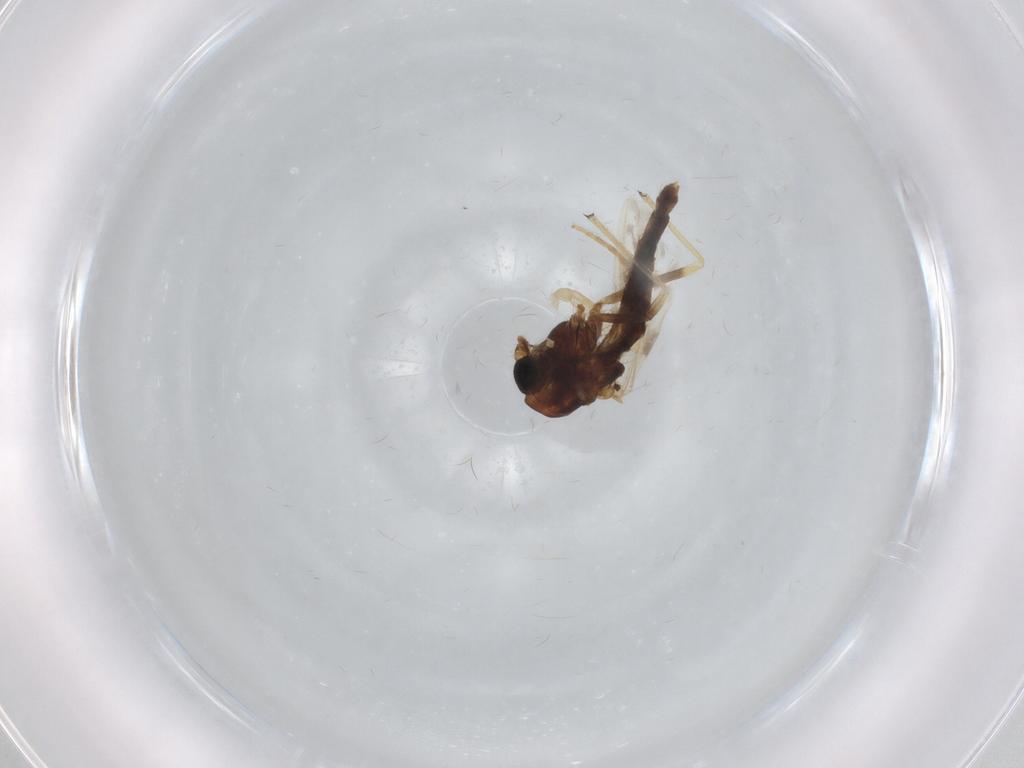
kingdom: Animalia
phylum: Arthropoda
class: Insecta
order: Diptera
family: Chironomidae
